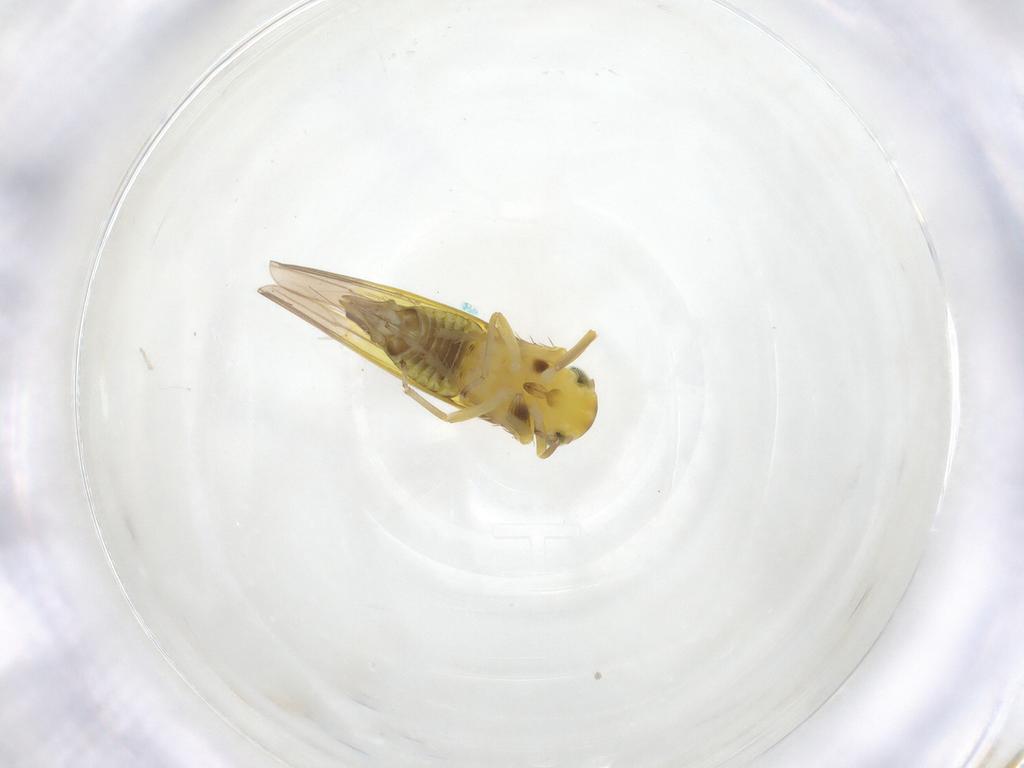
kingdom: Animalia
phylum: Arthropoda
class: Insecta
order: Hemiptera
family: Cicadellidae
